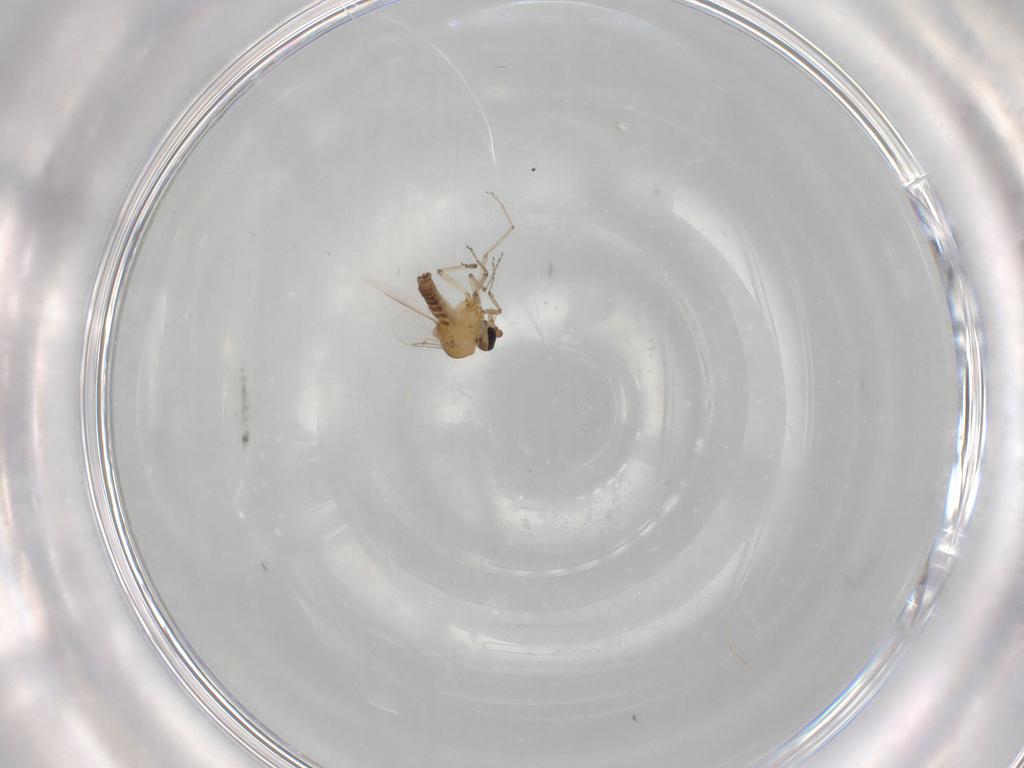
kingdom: Animalia
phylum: Arthropoda
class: Insecta
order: Diptera
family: Ceratopogonidae
